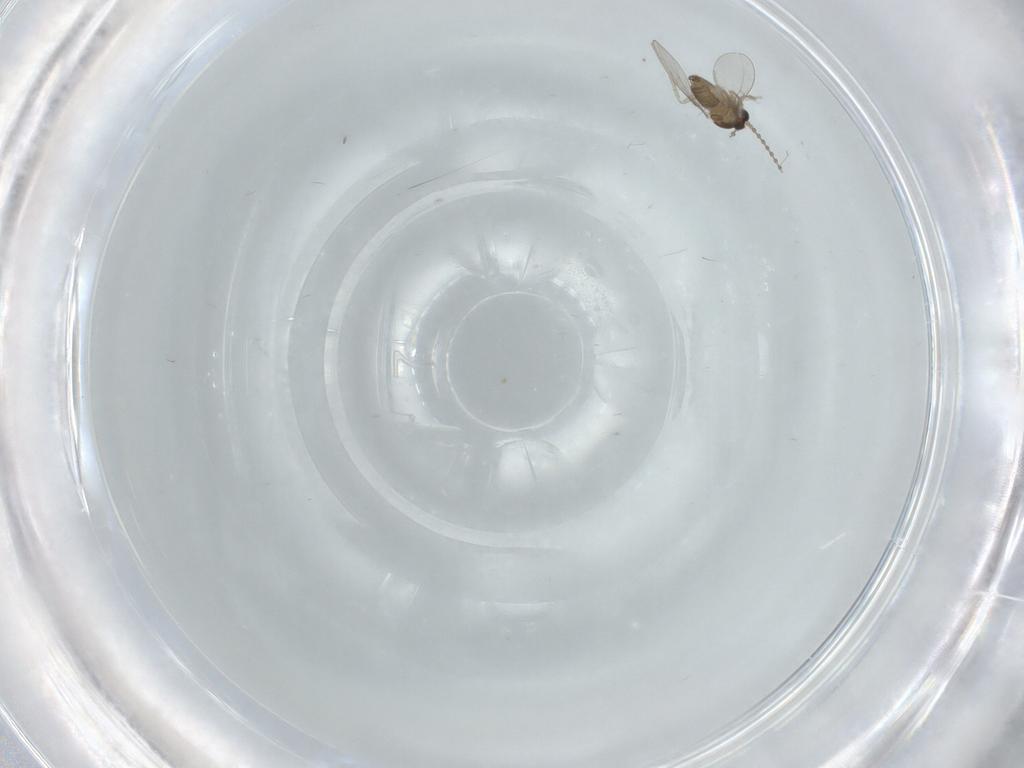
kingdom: Animalia
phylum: Arthropoda
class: Insecta
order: Diptera
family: Cecidomyiidae
